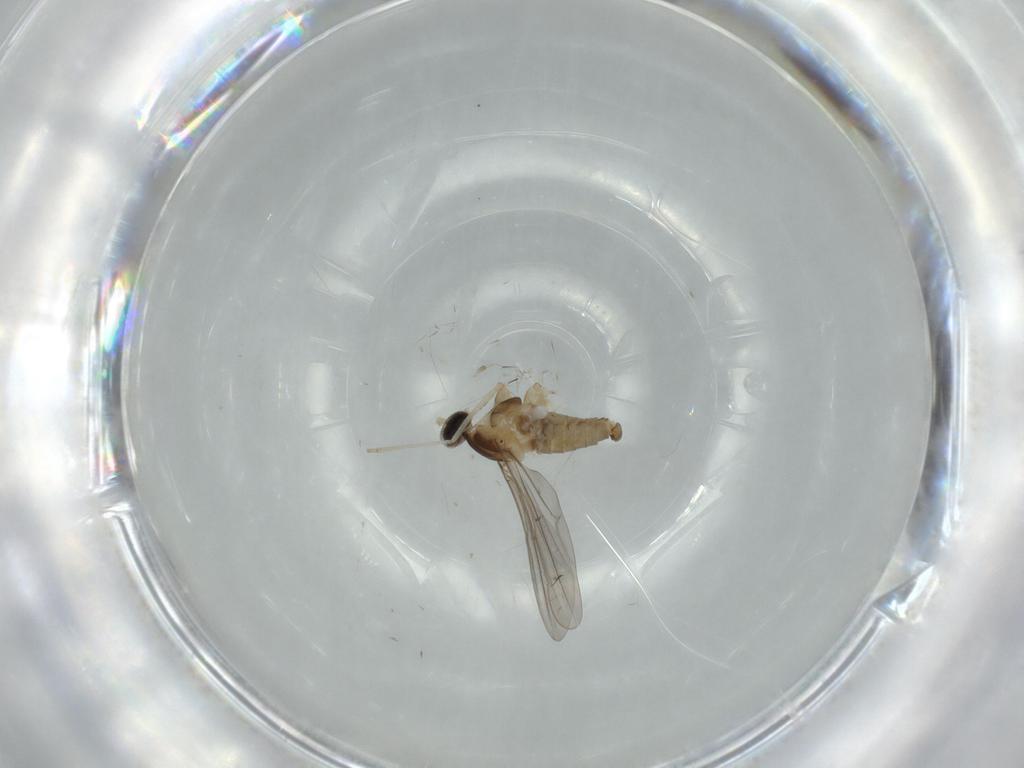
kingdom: Animalia
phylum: Arthropoda
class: Insecta
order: Diptera
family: Cecidomyiidae
